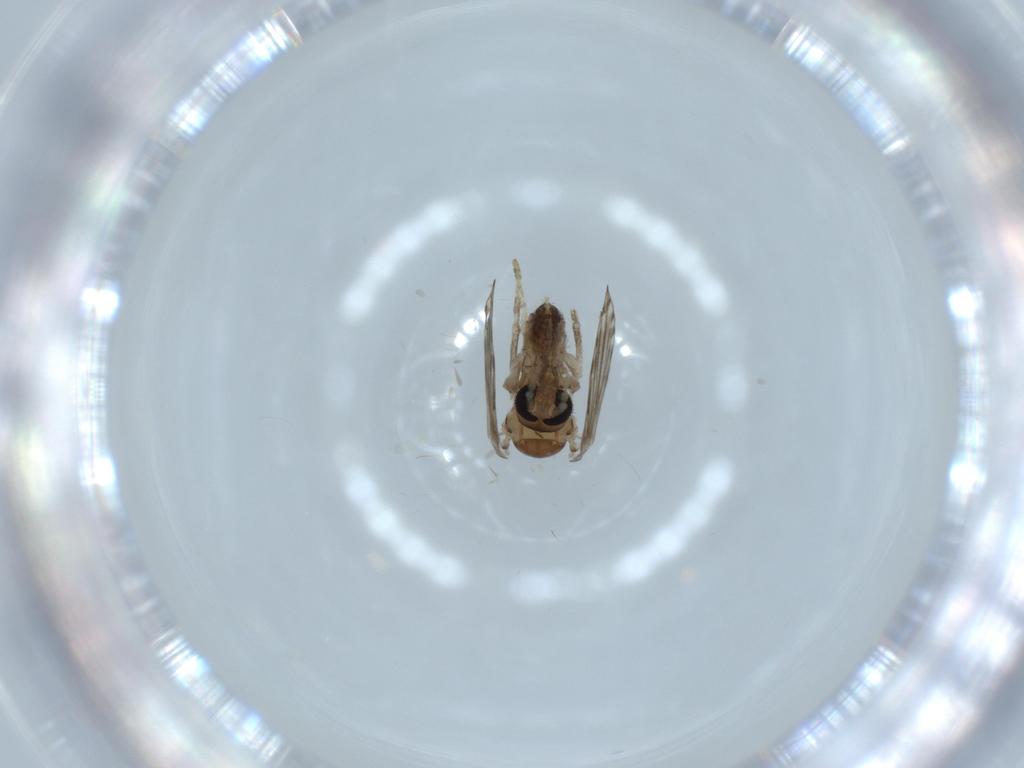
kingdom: Animalia
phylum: Arthropoda
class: Insecta
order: Diptera
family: Psychodidae
